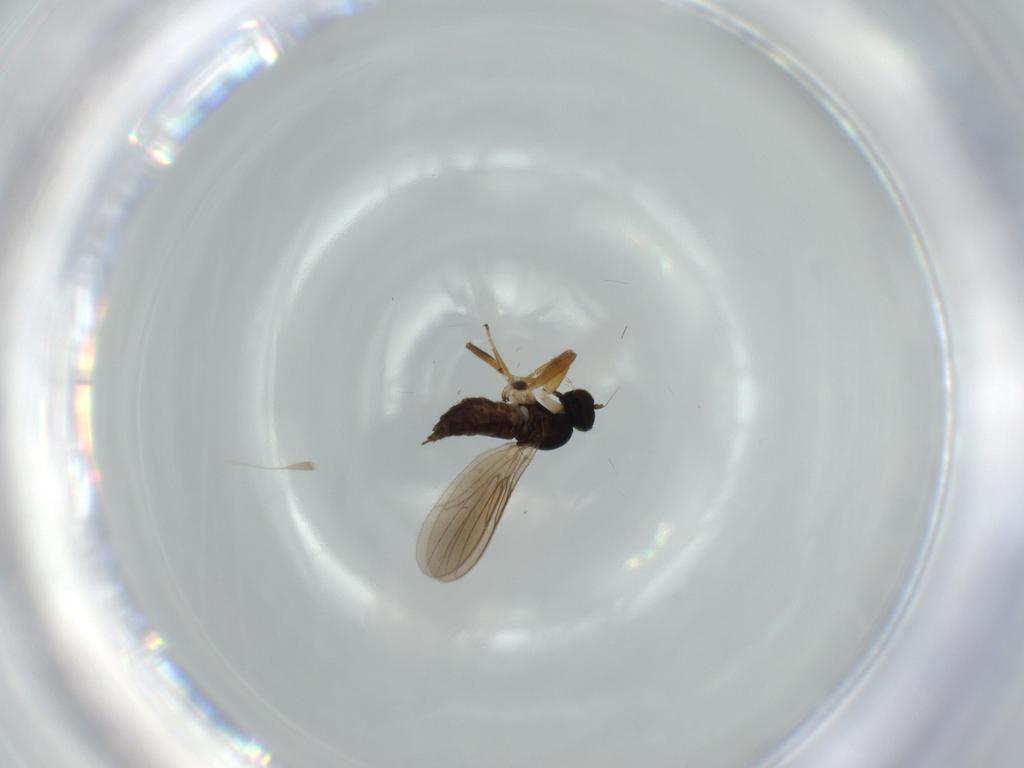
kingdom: Animalia
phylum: Arthropoda
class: Insecta
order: Diptera
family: Hybotidae
